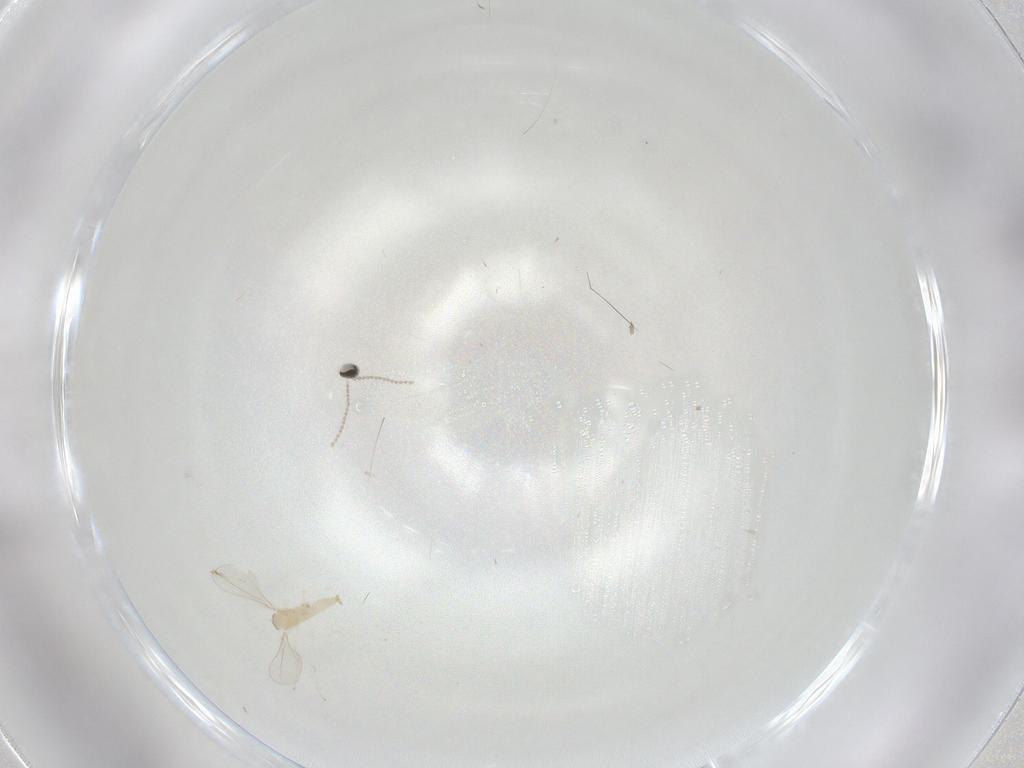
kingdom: Animalia
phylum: Arthropoda
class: Insecta
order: Diptera
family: Cecidomyiidae
